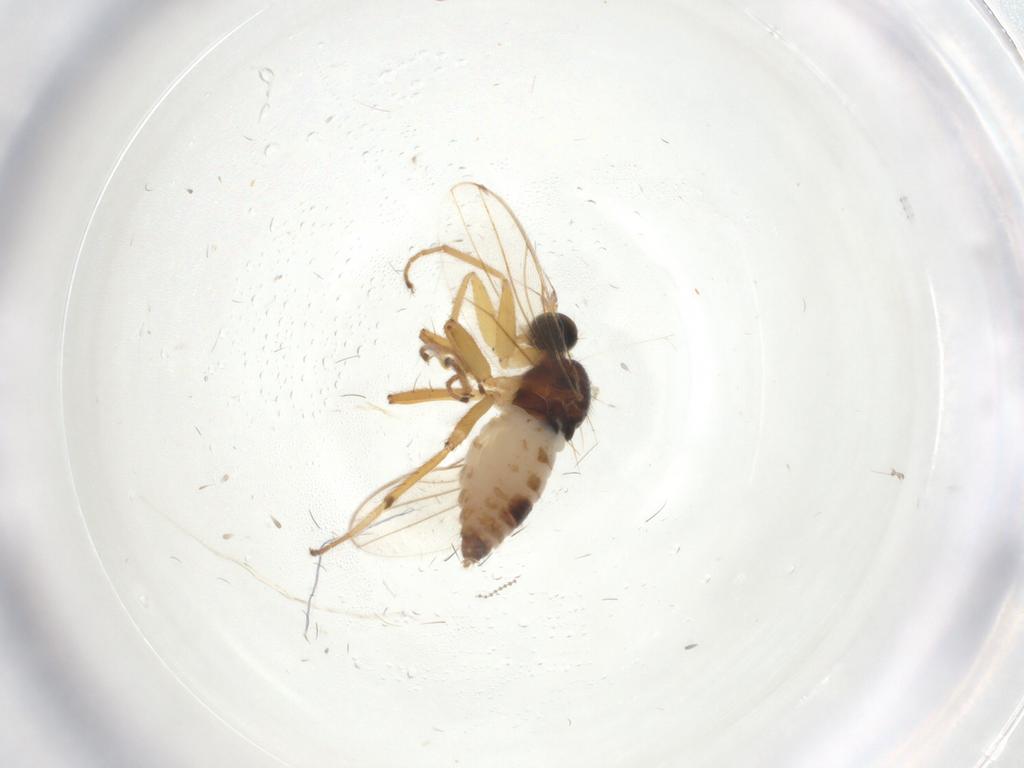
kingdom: Animalia
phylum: Arthropoda
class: Insecta
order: Diptera
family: Hybotidae
